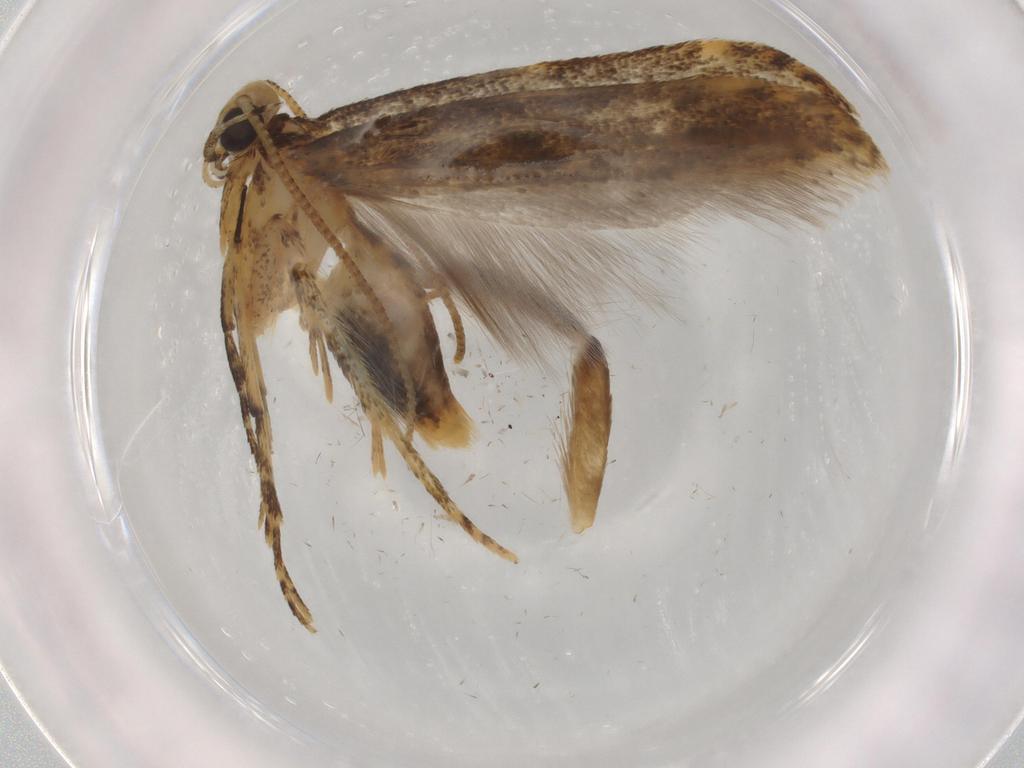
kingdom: Animalia
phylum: Arthropoda
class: Insecta
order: Lepidoptera
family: Gelechiidae
